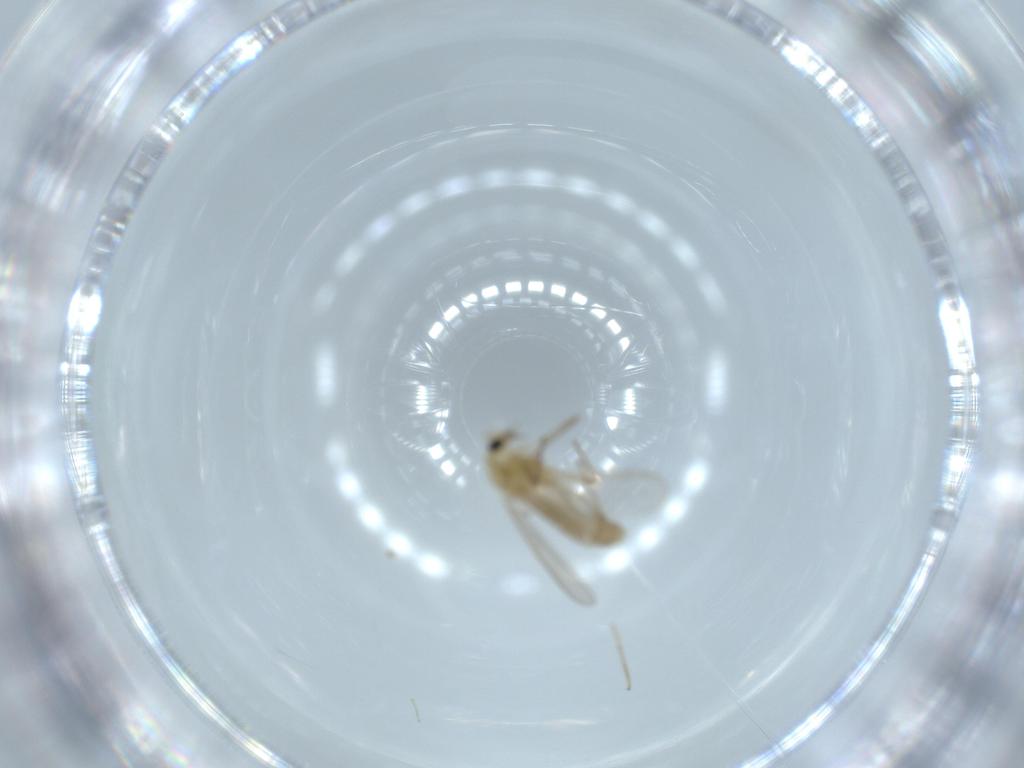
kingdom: Animalia
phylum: Arthropoda
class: Insecta
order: Diptera
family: Chironomidae
